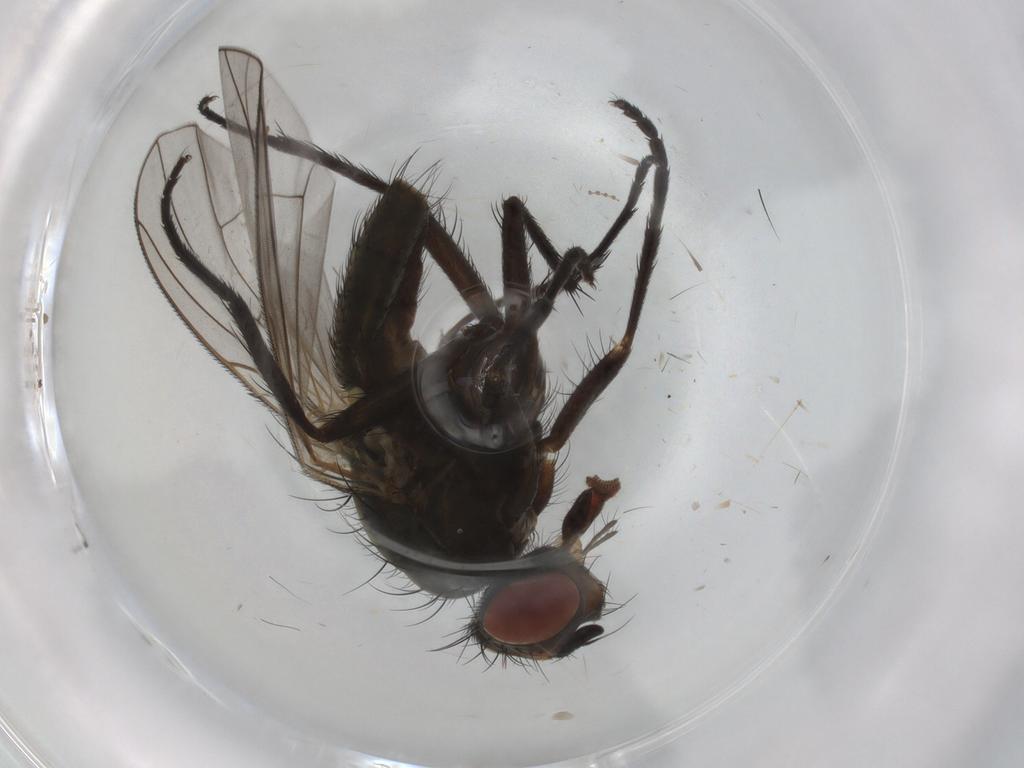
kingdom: Animalia
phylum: Arthropoda
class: Insecta
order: Diptera
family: Anthomyiidae
